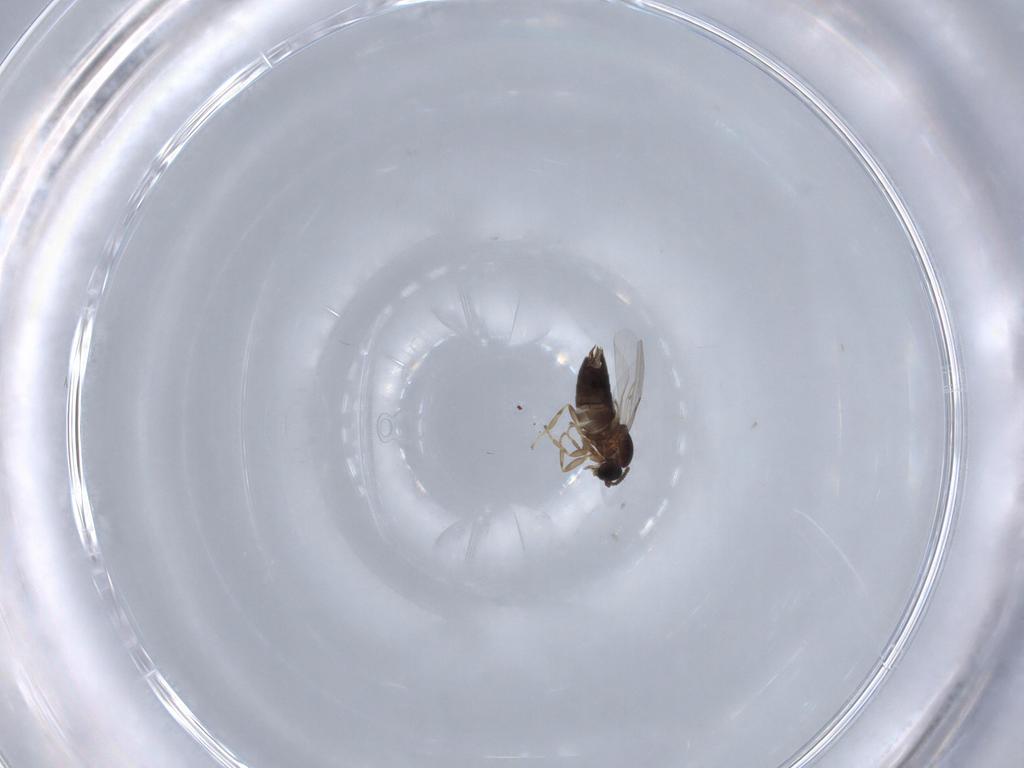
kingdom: Animalia
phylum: Arthropoda
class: Insecta
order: Diptera
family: Scatopsidae
